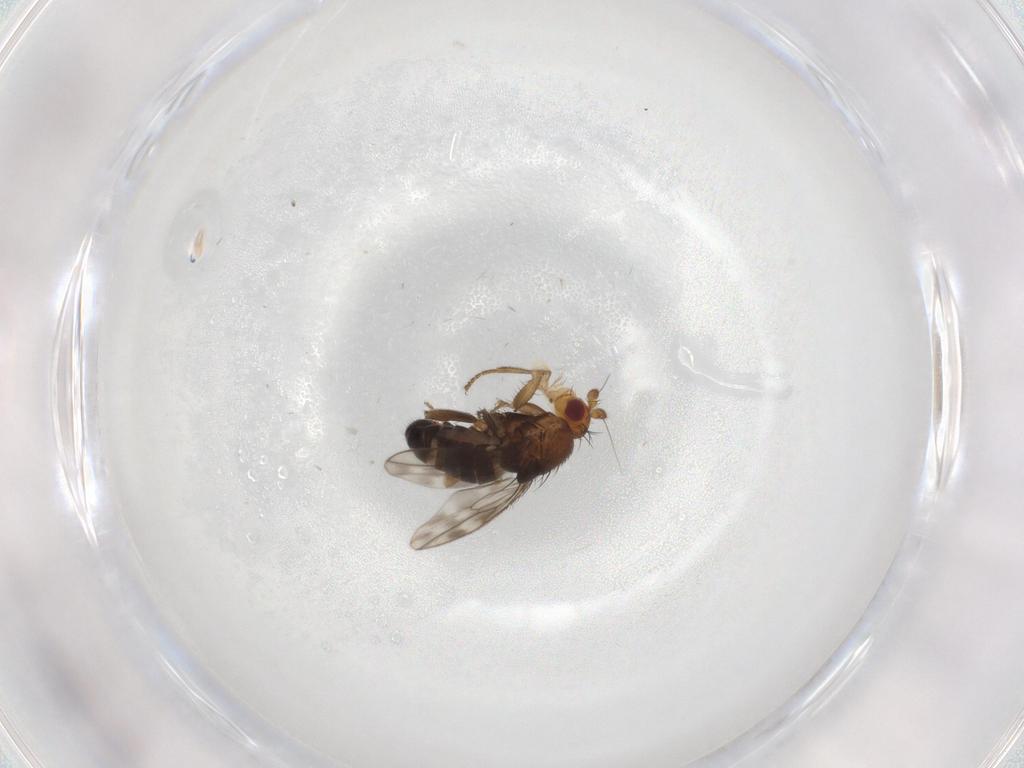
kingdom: Animalia
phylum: Arthropoda
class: Insecta
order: Diptera
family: Sphaeroceridae
